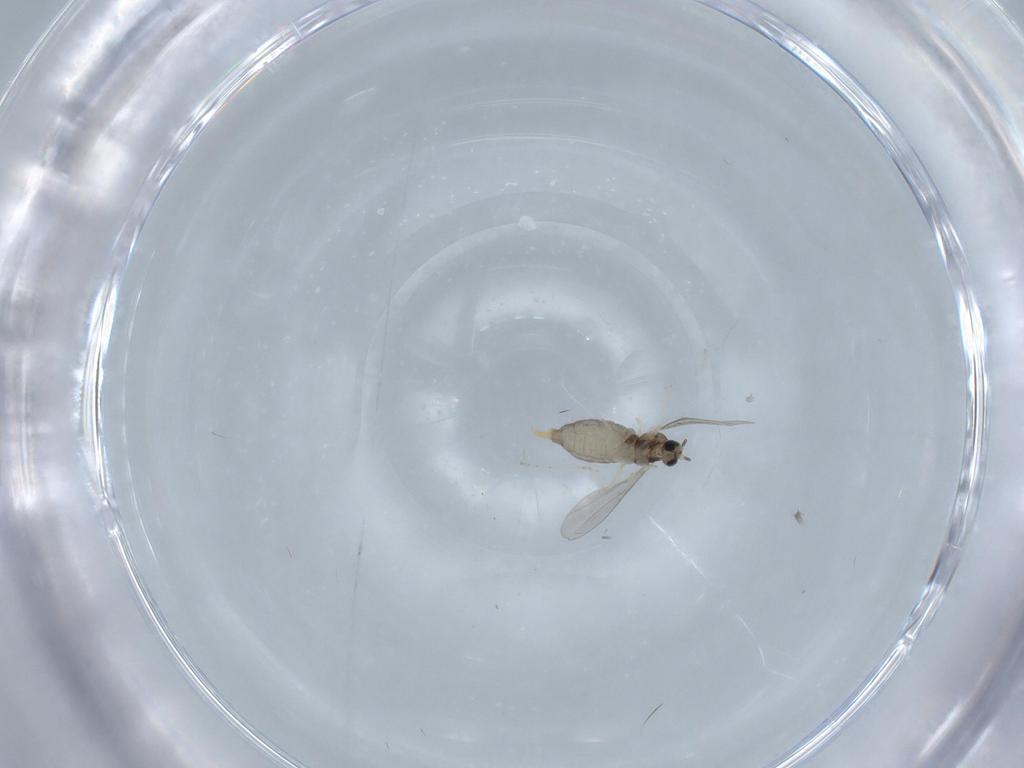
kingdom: Animalia
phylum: Arthropoda
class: Insecta
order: Diptera
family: Cecidomyiidae
